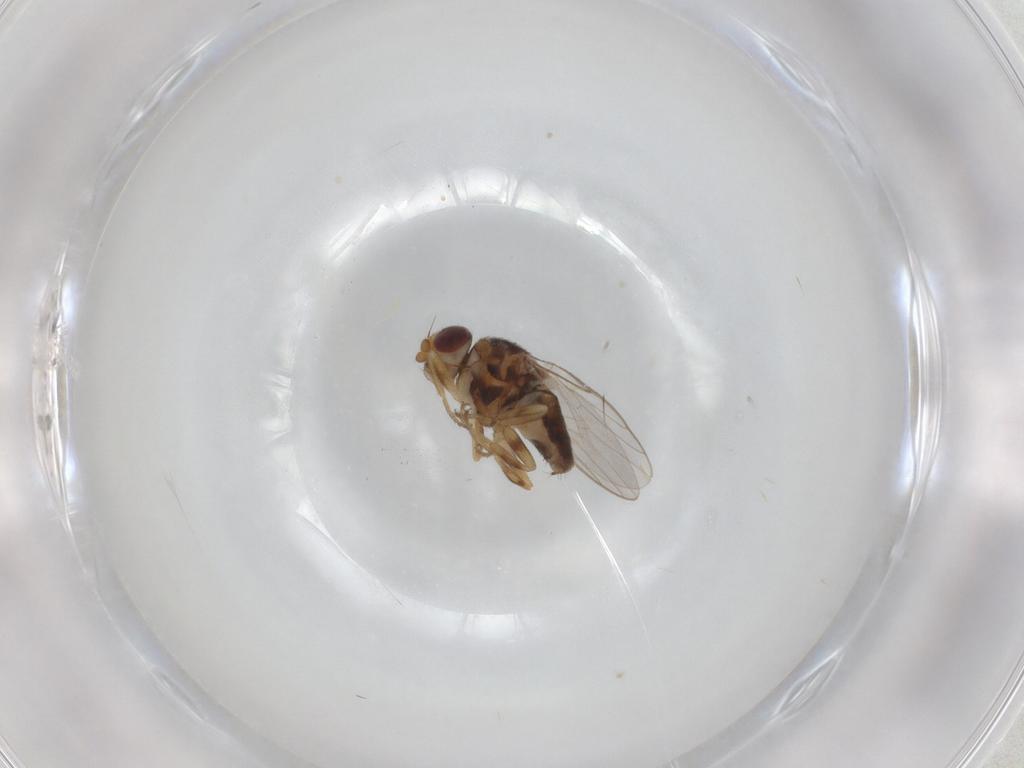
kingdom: Animalia
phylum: Arthropoda
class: Insecta
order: Diptera
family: Chloropidae
